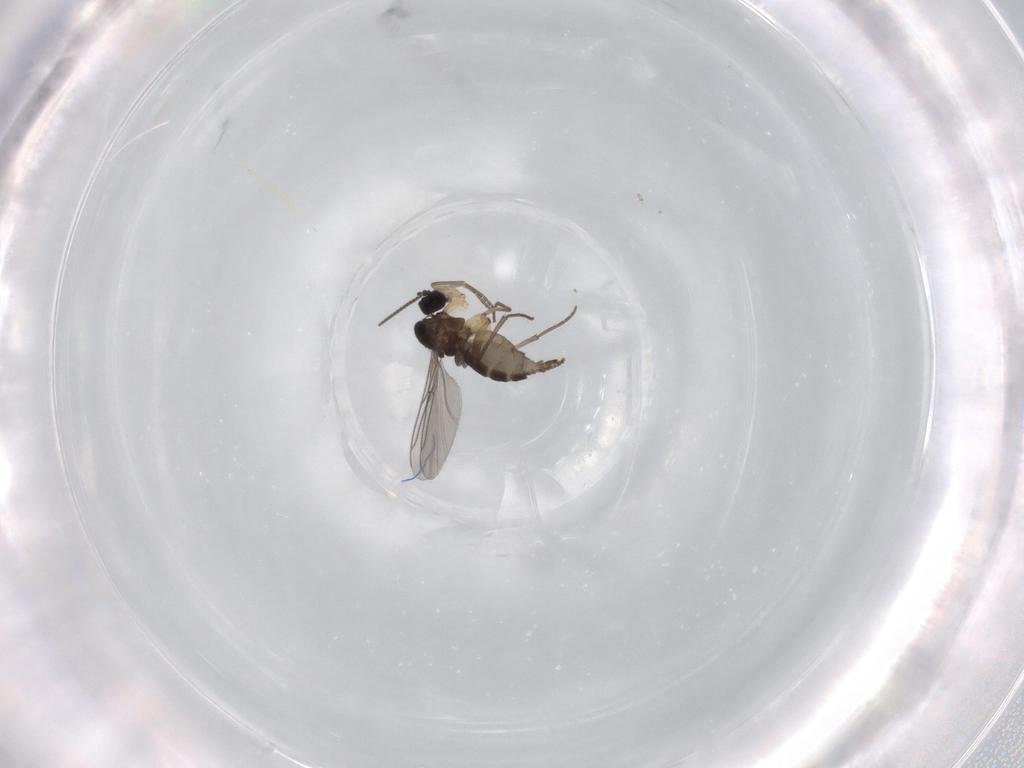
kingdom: Animalia
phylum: Arthropoda
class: Insecta
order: Diptera
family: Sciaridae
